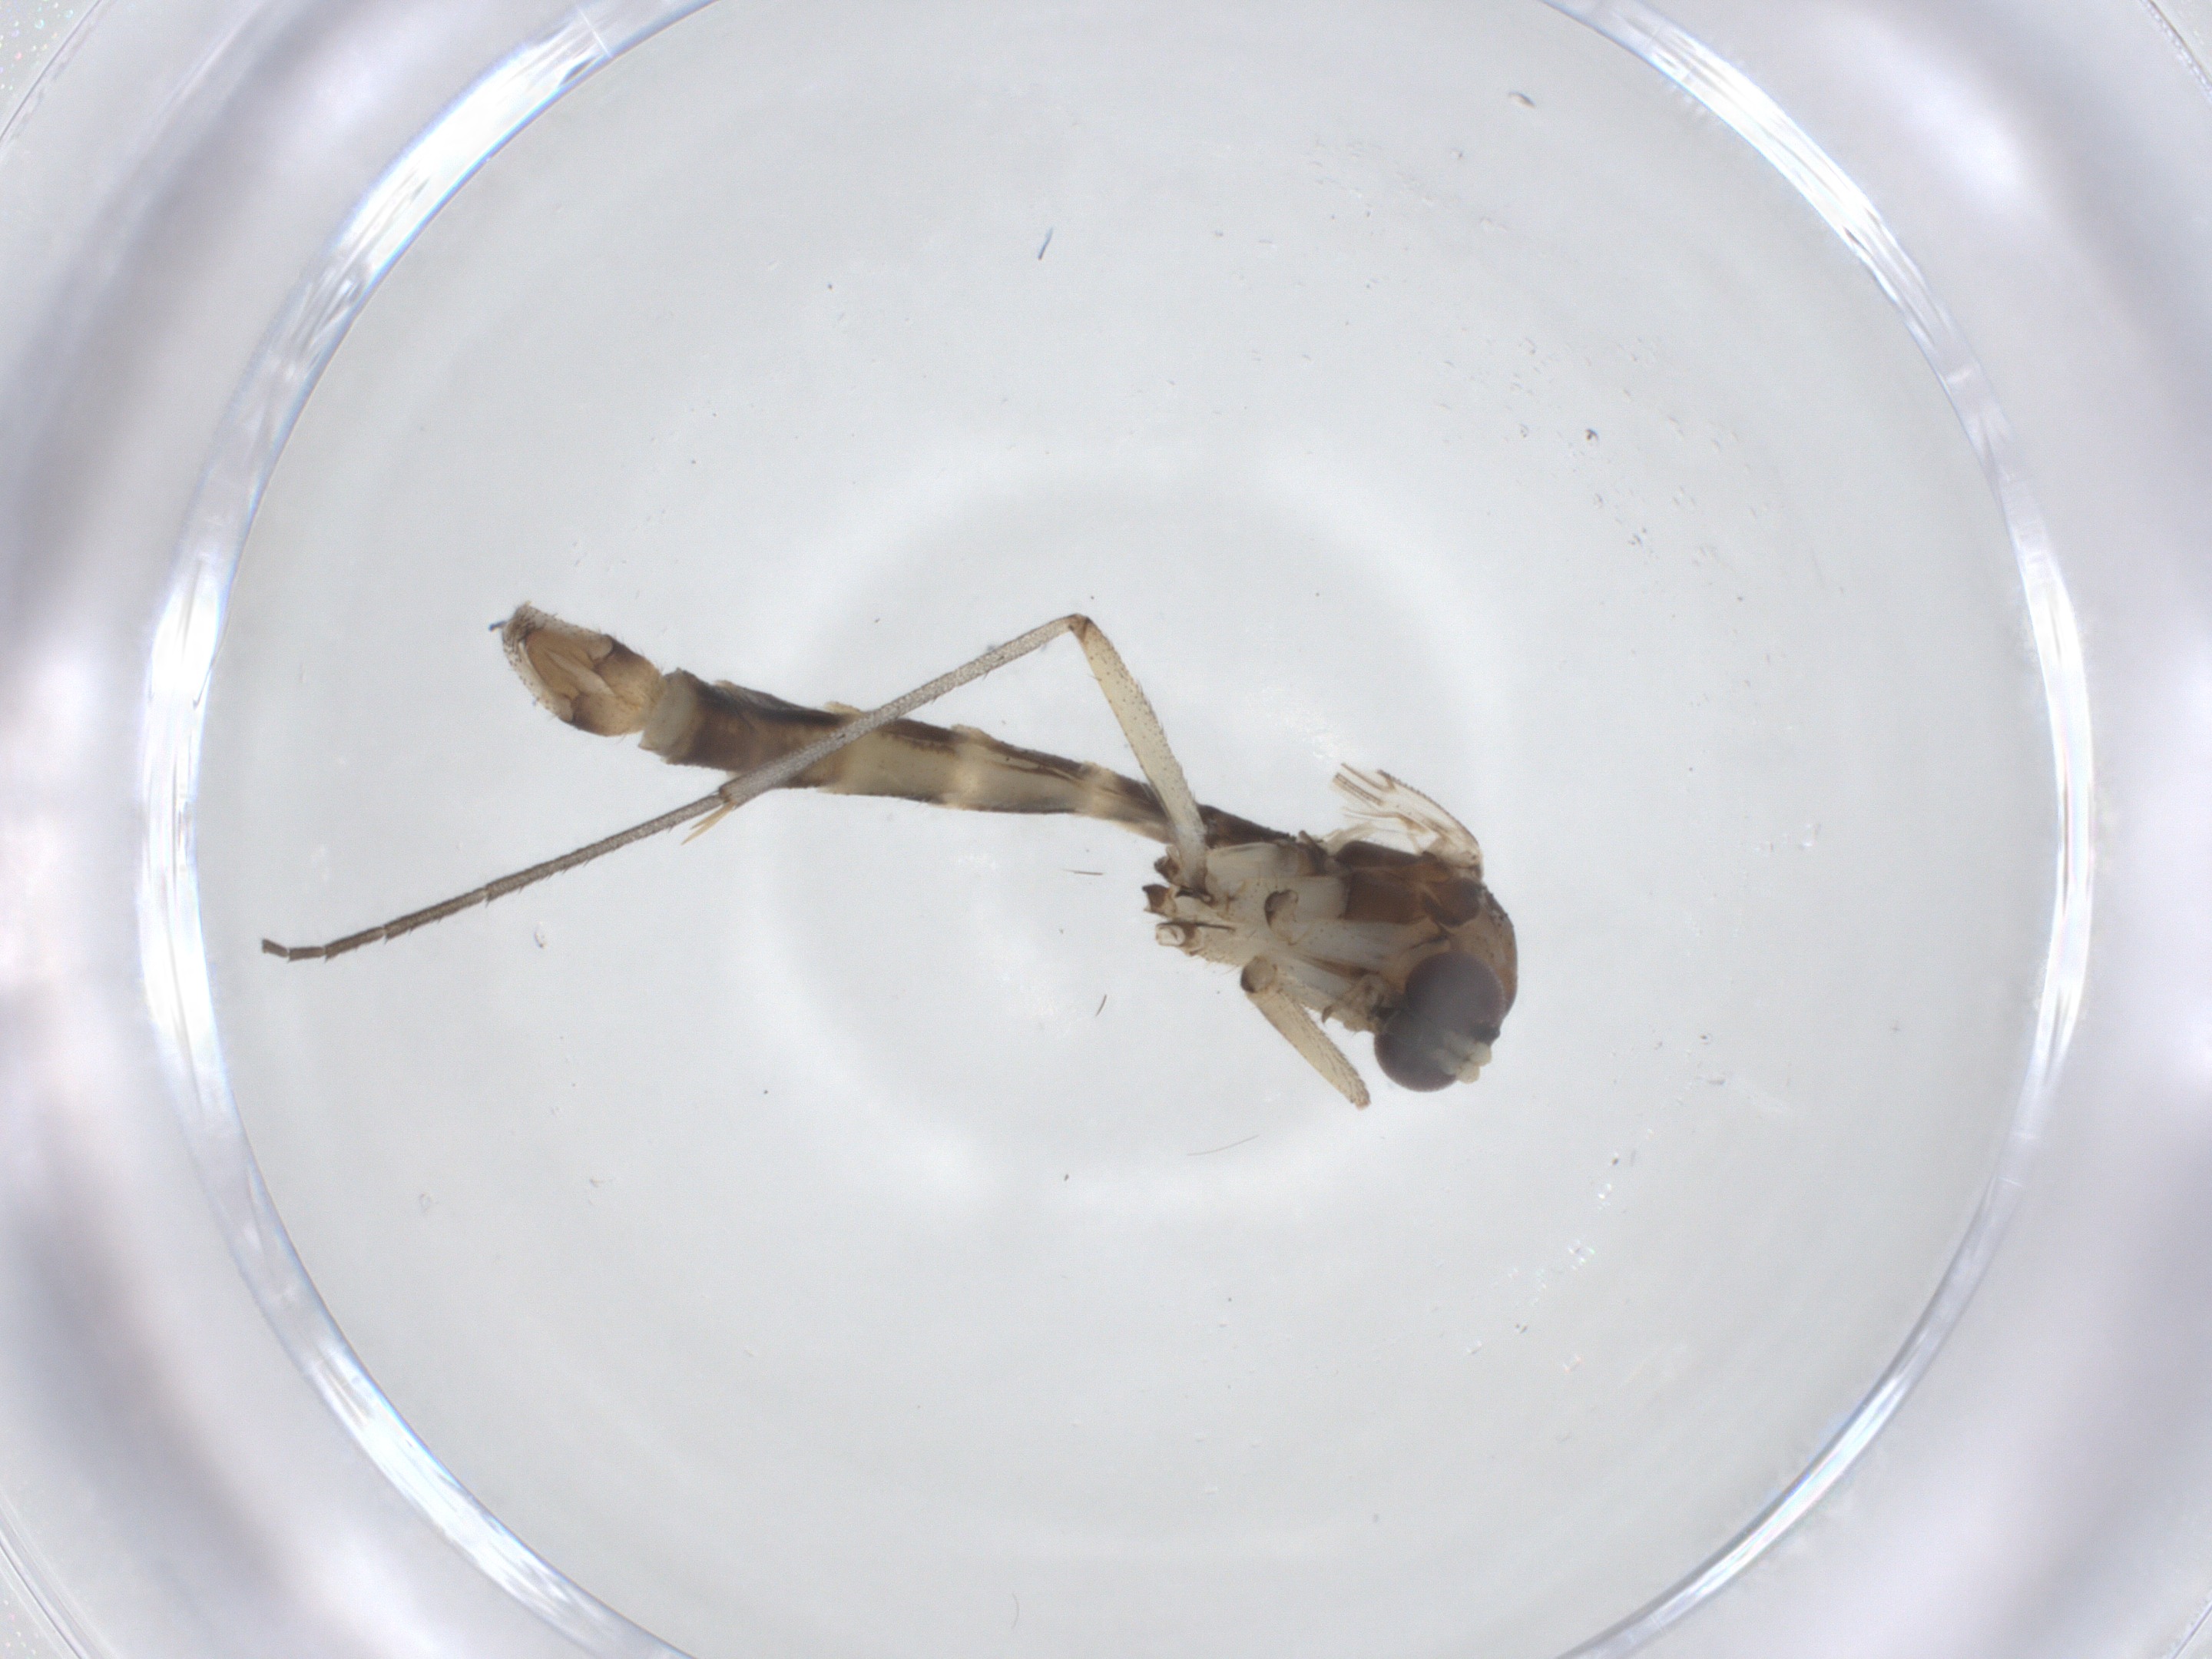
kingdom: Animalia
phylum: Arthropoda
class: Insecta
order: Diptera
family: Mycetophilidae
